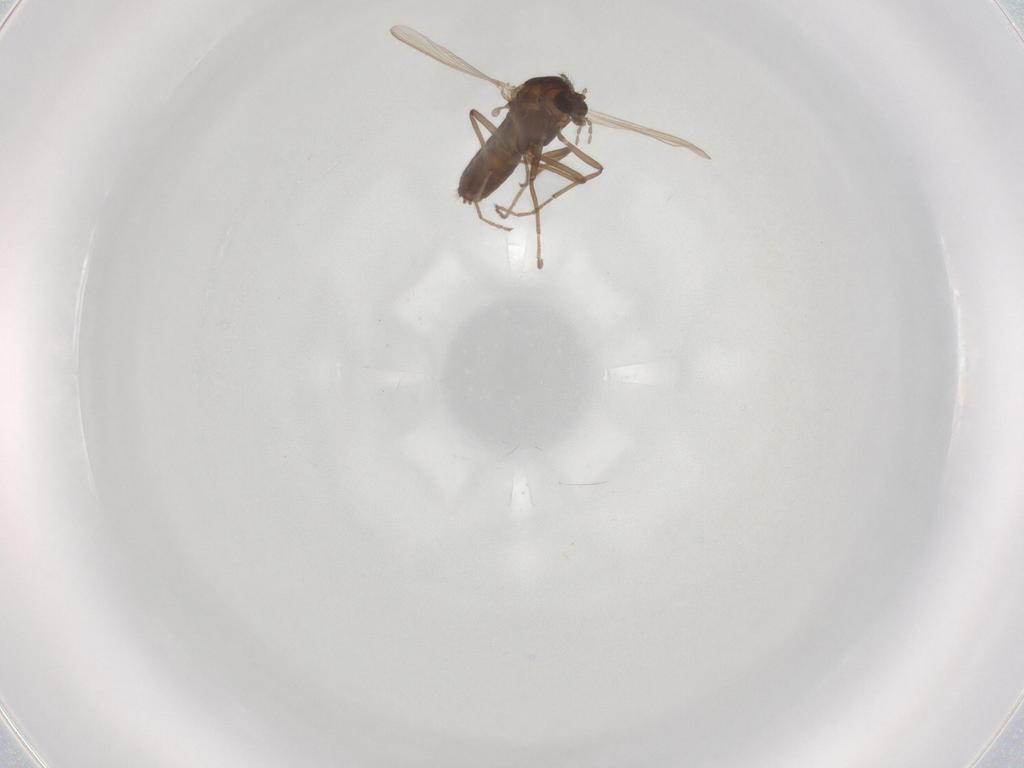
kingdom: Animalia
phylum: Arthropoda
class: Insecta
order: Diptera
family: Chironomidae
